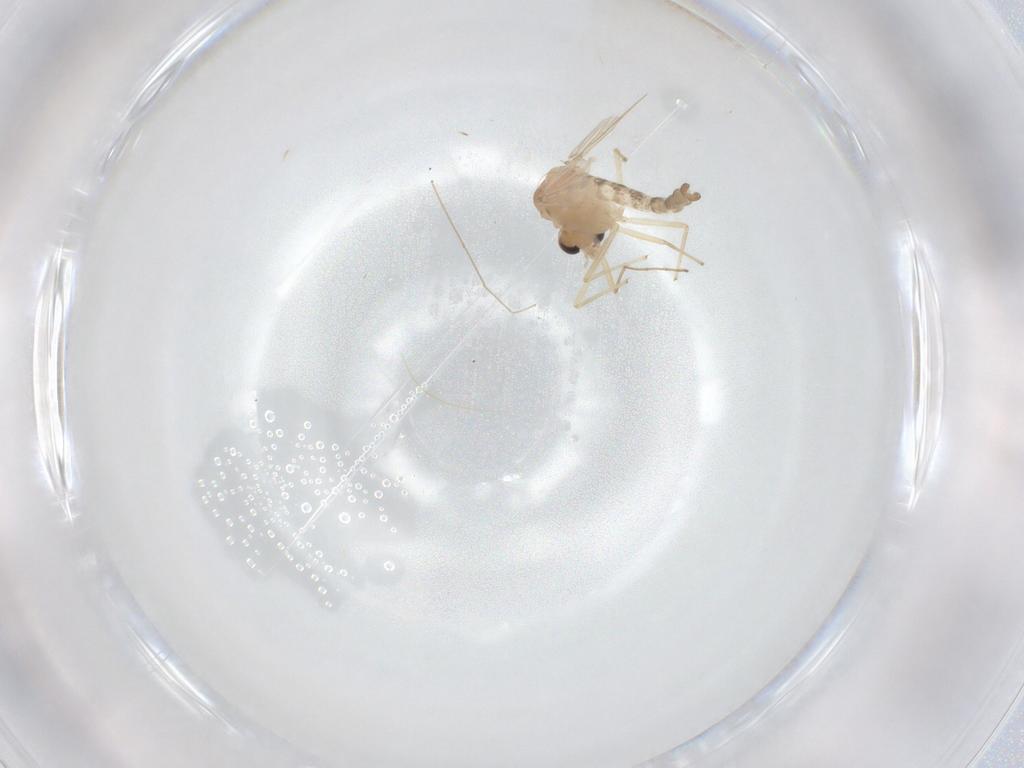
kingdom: Animalia
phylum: Arthropoda
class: Insecta
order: Diptera
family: Chironomidae
